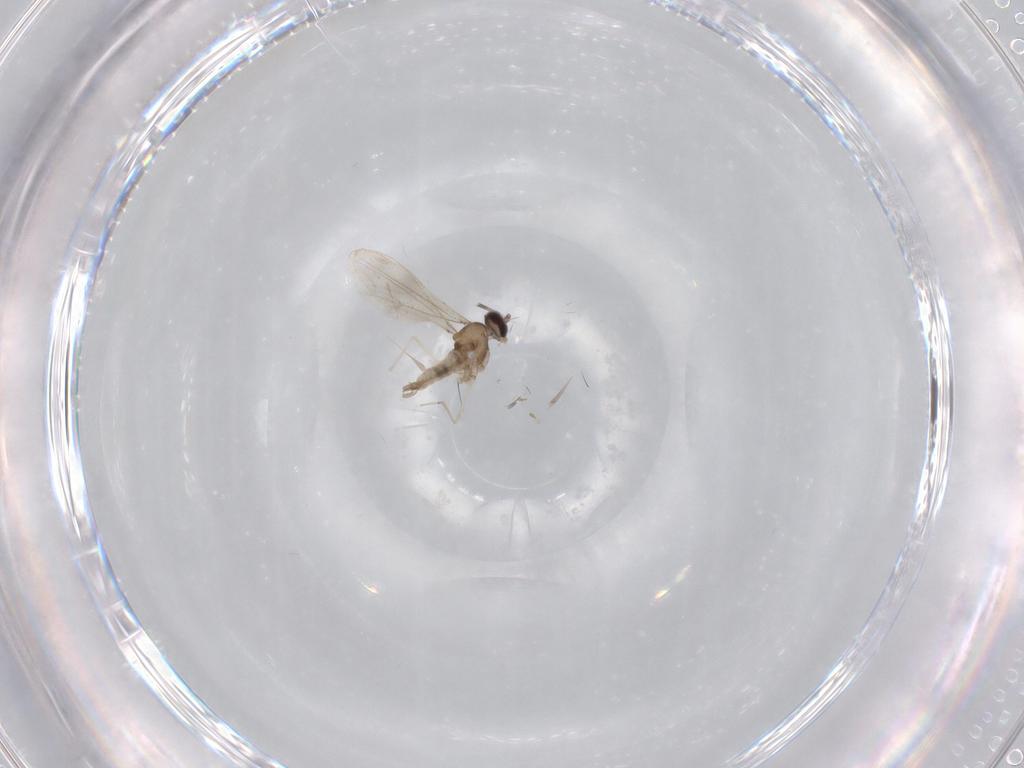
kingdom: Animalia
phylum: Arthropoda
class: Insecta
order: Diptera
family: Cecidomyiidae
